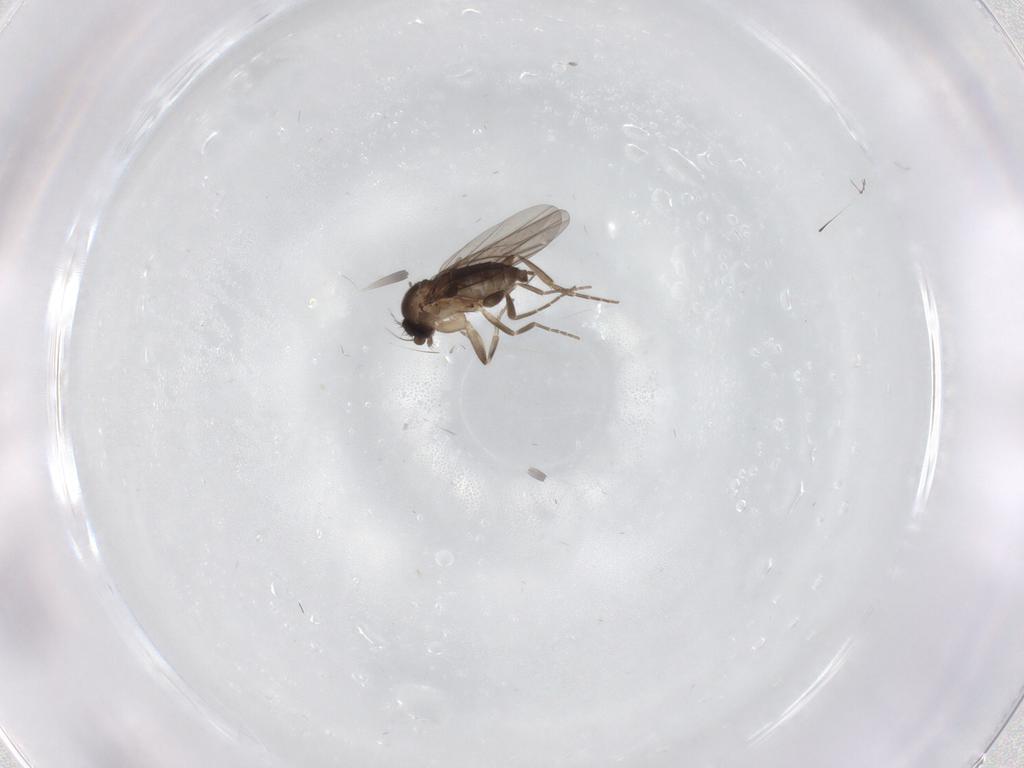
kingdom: Animalia
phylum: Arthropoda
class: Insecta
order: Diptera
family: Phoridae
